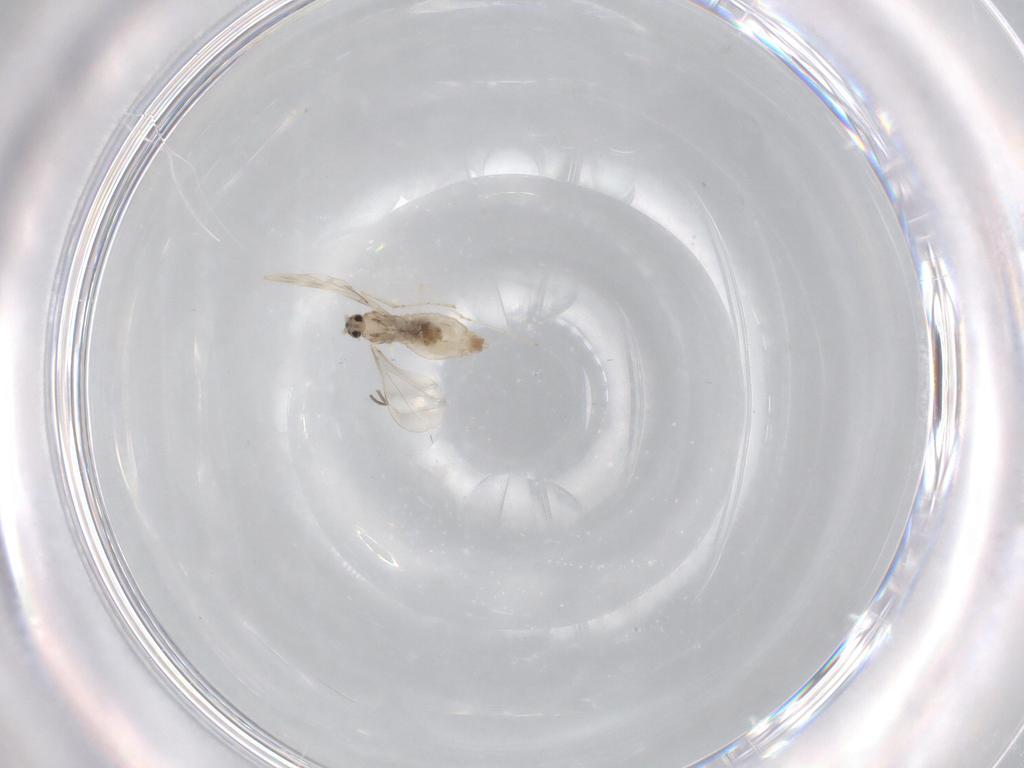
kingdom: Animalia
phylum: Arthropoda
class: Insecta
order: Diptera
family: Cecidomyiidae
